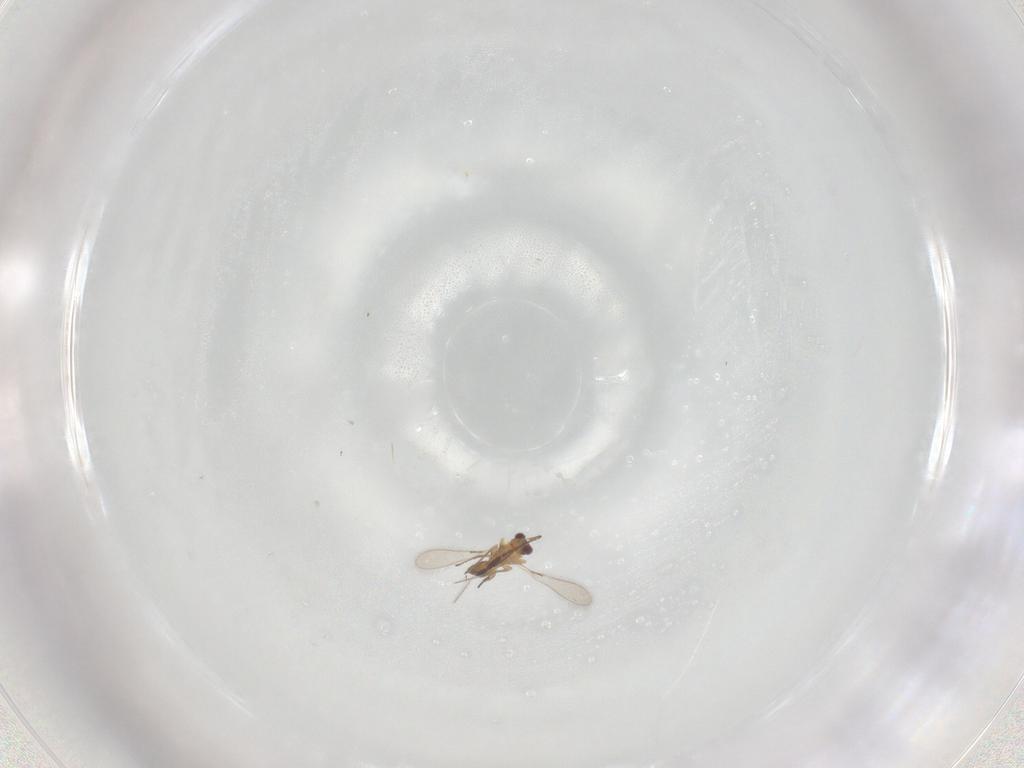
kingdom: Animalia
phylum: Arthropoda
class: Insecta
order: Hymenoptera
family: Mymaridae
